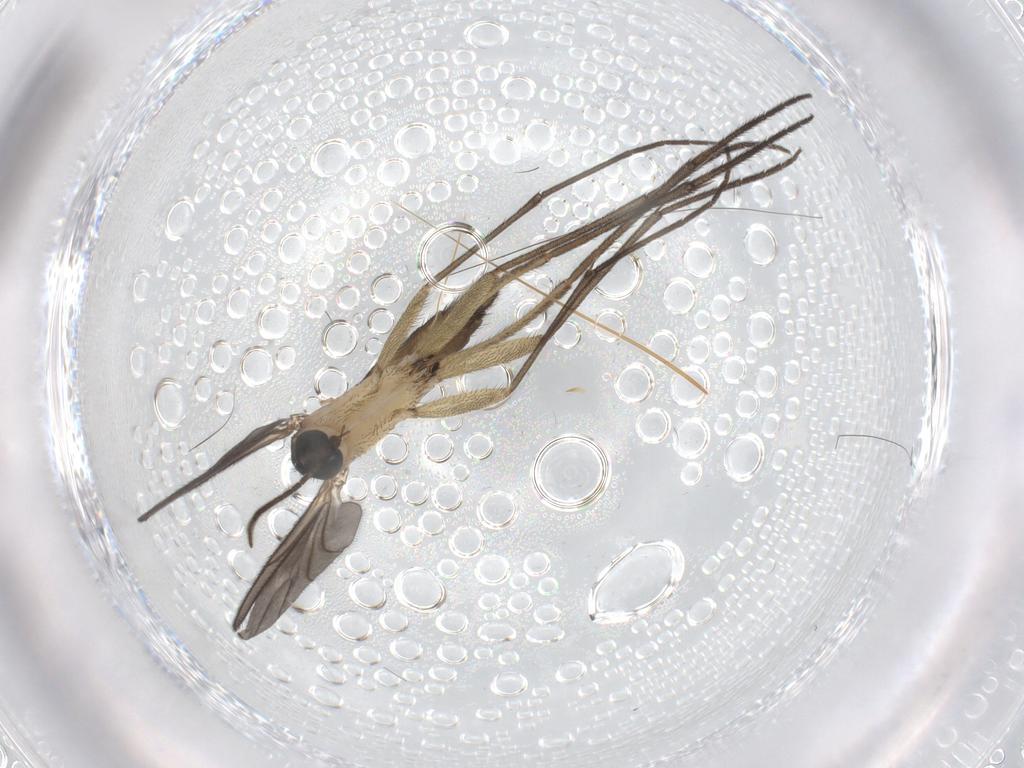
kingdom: Animalia
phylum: Arthropoda
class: Insecta
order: Diptera
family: Sciaridae
